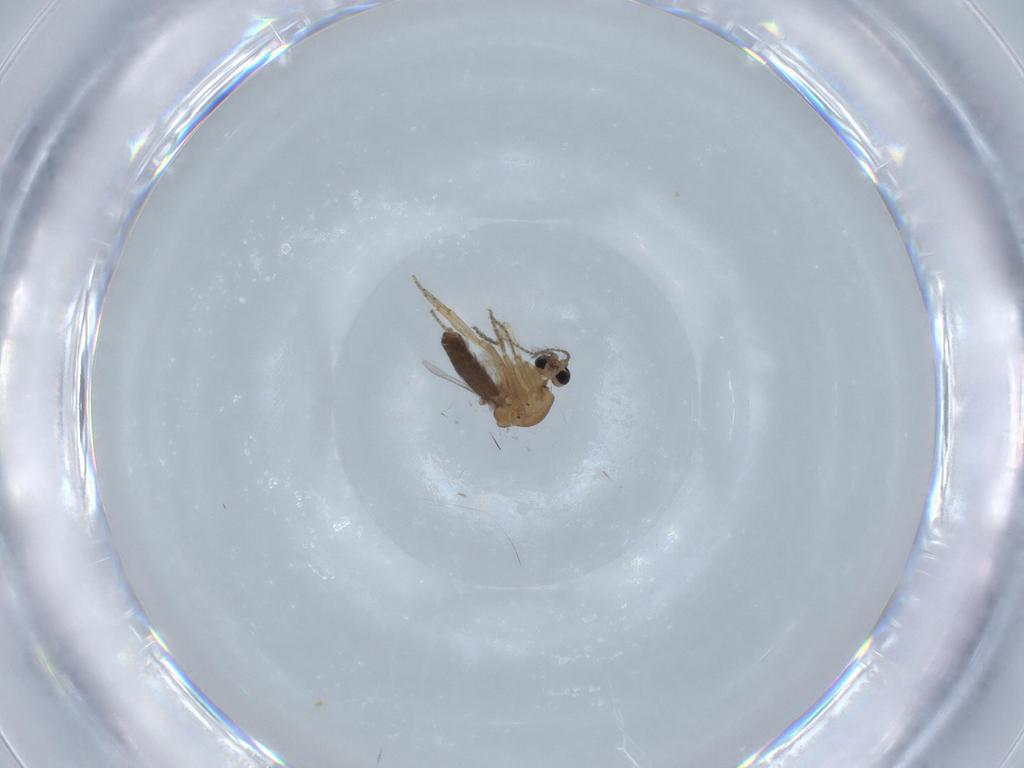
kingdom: Animalia
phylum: Arthropoda
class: Insecta
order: Diptera
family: Ceratopogonidae
